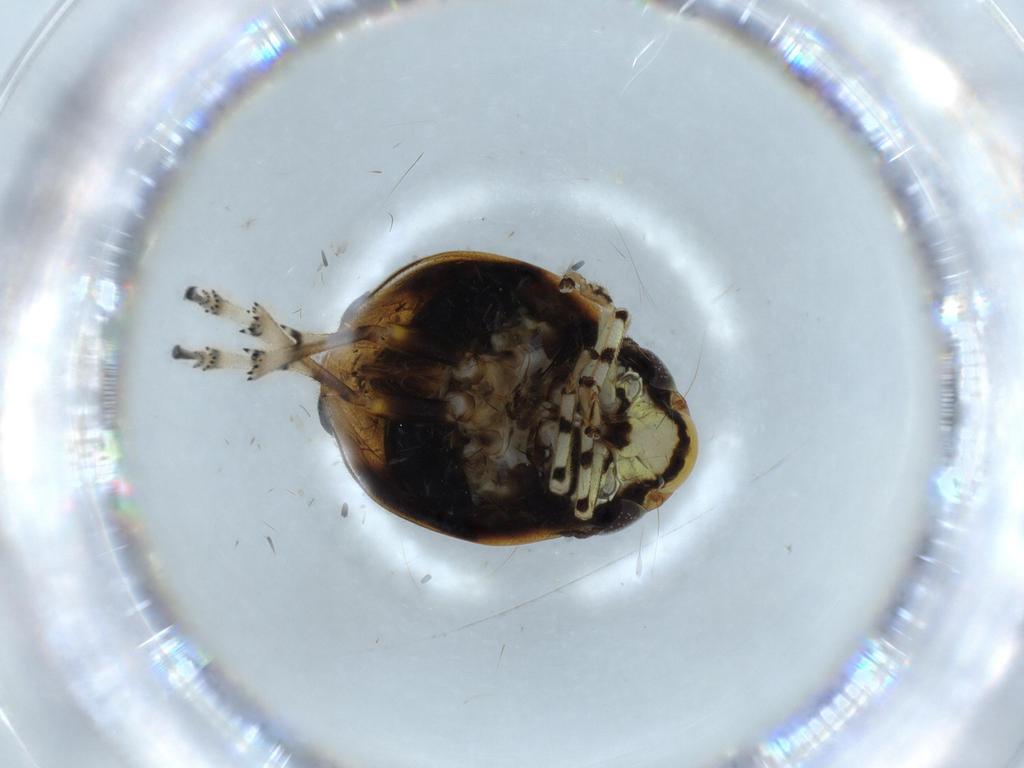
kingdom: Animalia
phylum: Arthropoda
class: Insecta
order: Hemiptera
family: Clastopteridae
